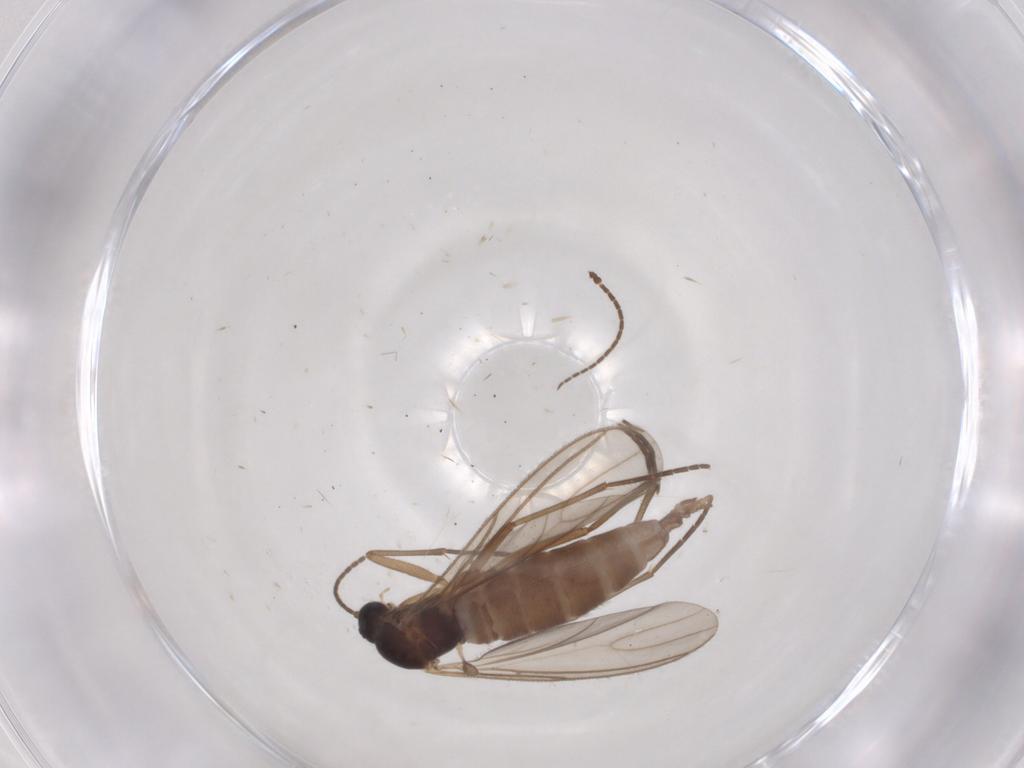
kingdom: Animalia
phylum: Arthropoda
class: Insecta
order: Diptera
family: Sciaridae
